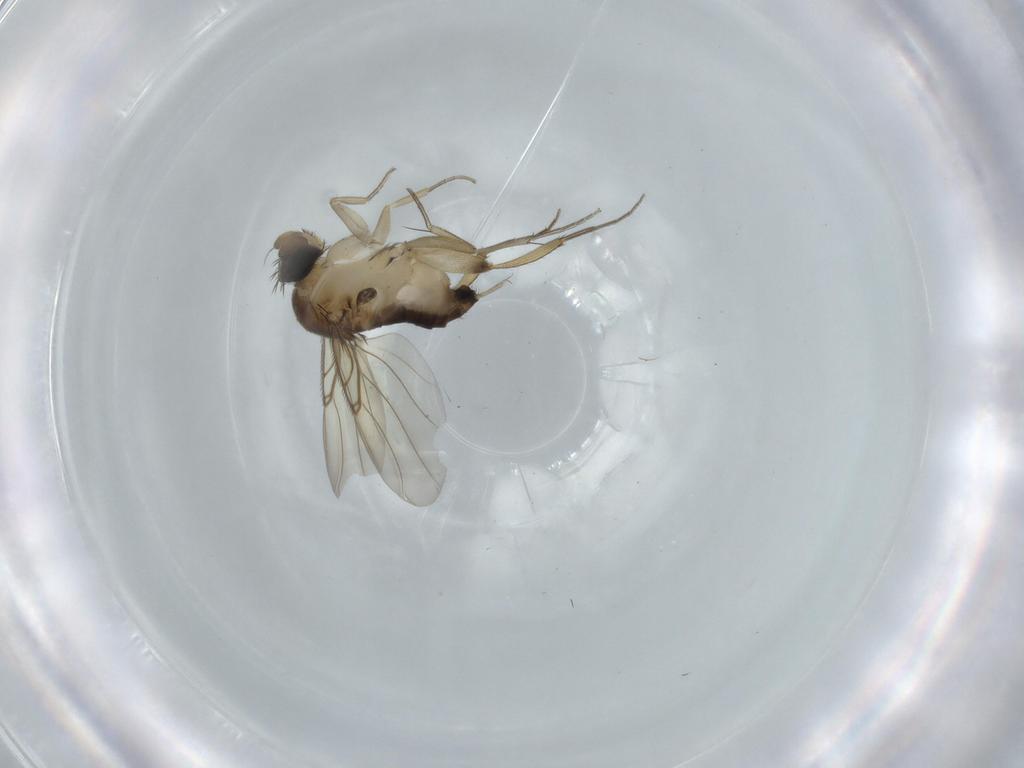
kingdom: Animalia
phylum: Arthropoda
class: Insecta
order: Diptera
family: Phoridae
